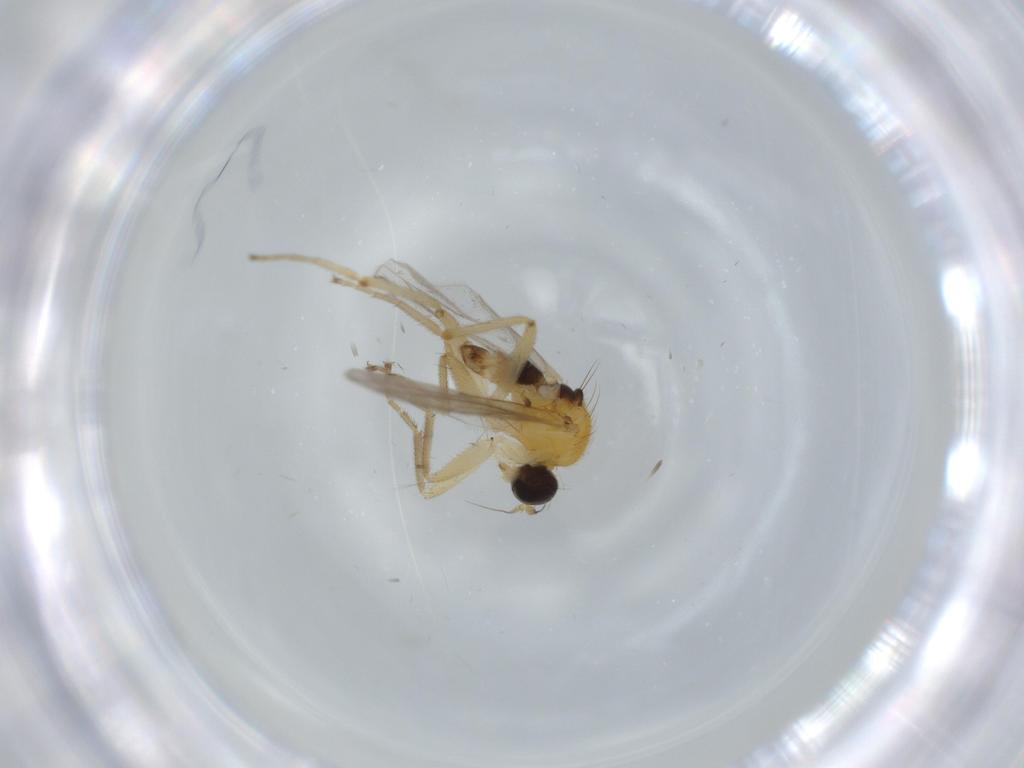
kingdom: Animalia
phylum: Arthropoda
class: Insecta
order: Diptera
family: Hybotidae
